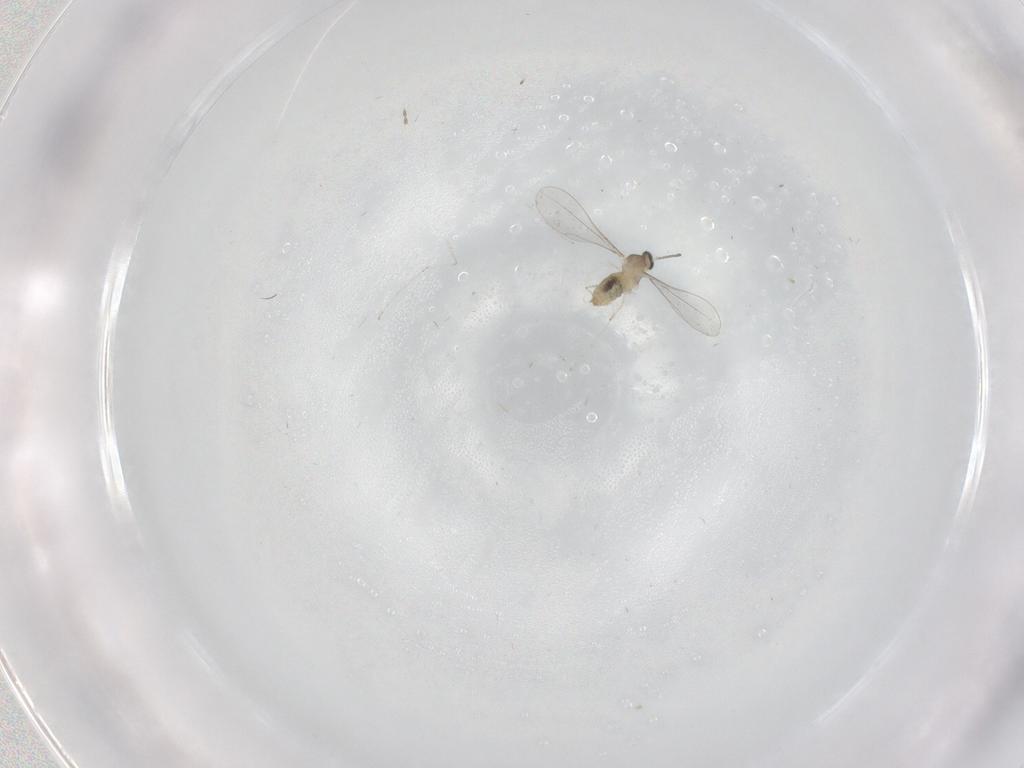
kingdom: Animalia
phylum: Arthropoda
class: Insecta
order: Diptera
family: Cecidomyiidae
